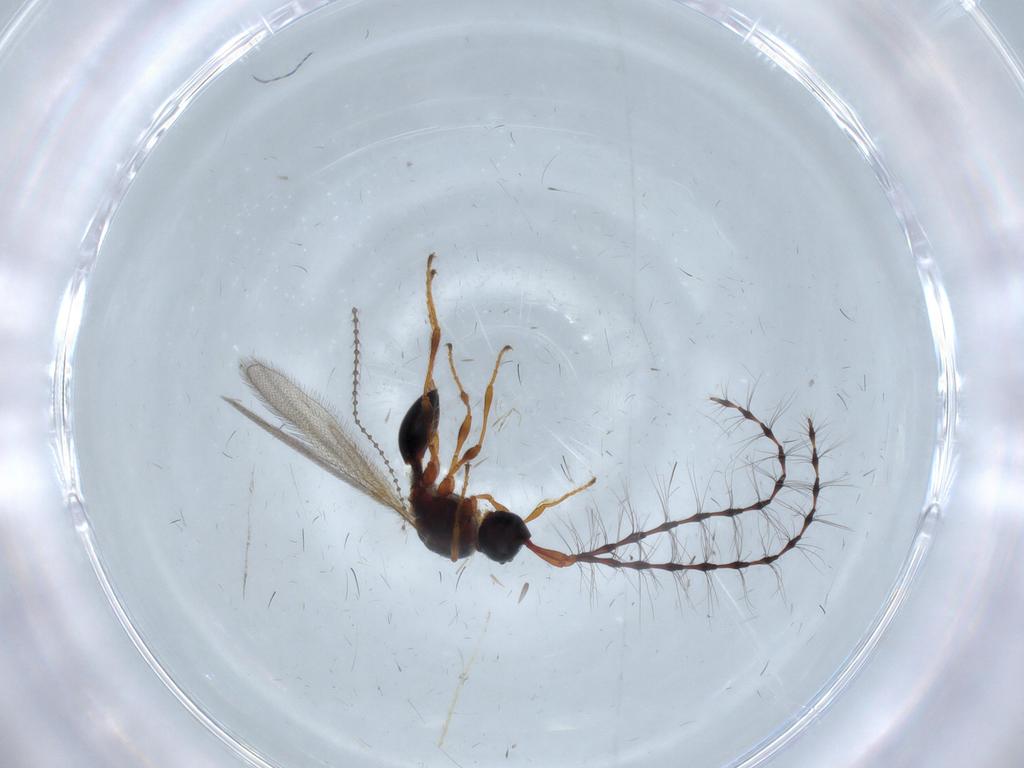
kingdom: Animalia
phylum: Arthropoda
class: Insecta
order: Hymenoptera
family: Diapriidae
